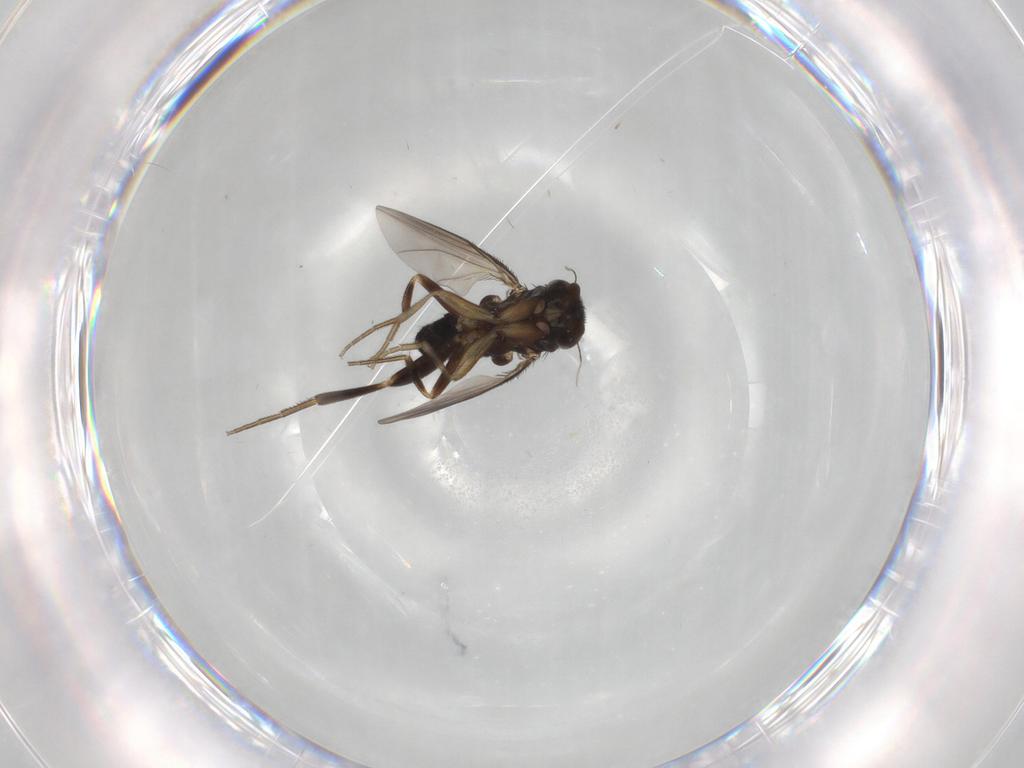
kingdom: Animalia
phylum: Arthropoda
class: Insecta
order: Diptera
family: Phoridae
